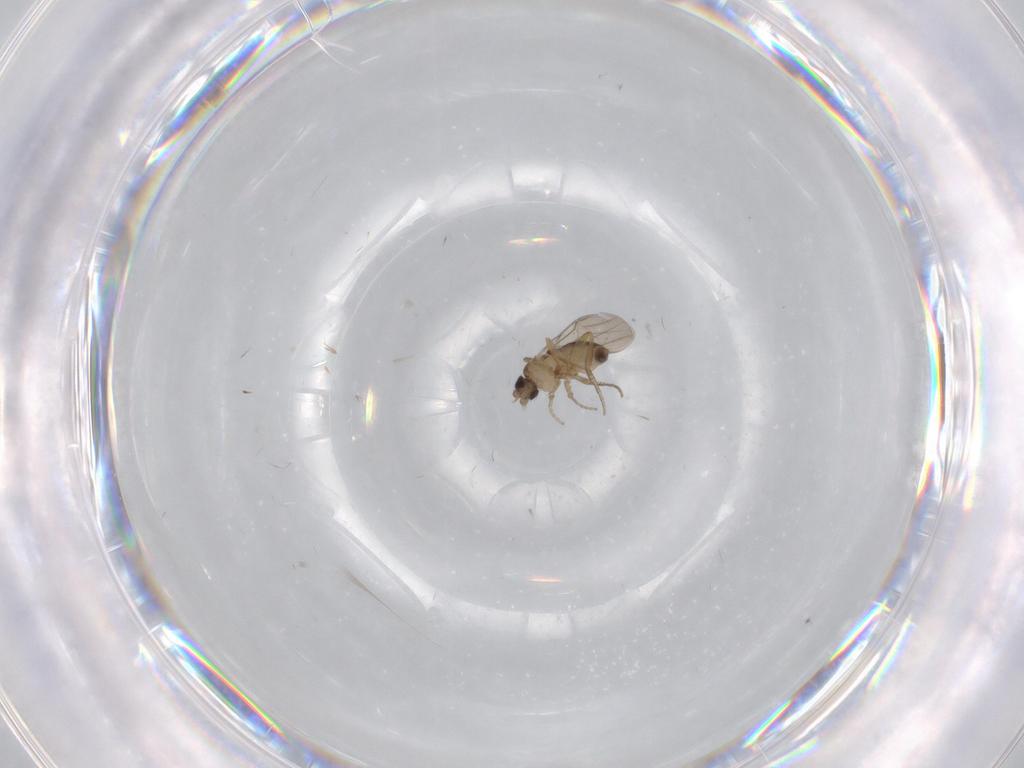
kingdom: Animalia
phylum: Arthropoda
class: Insecta
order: Diptera
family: Phoridae
